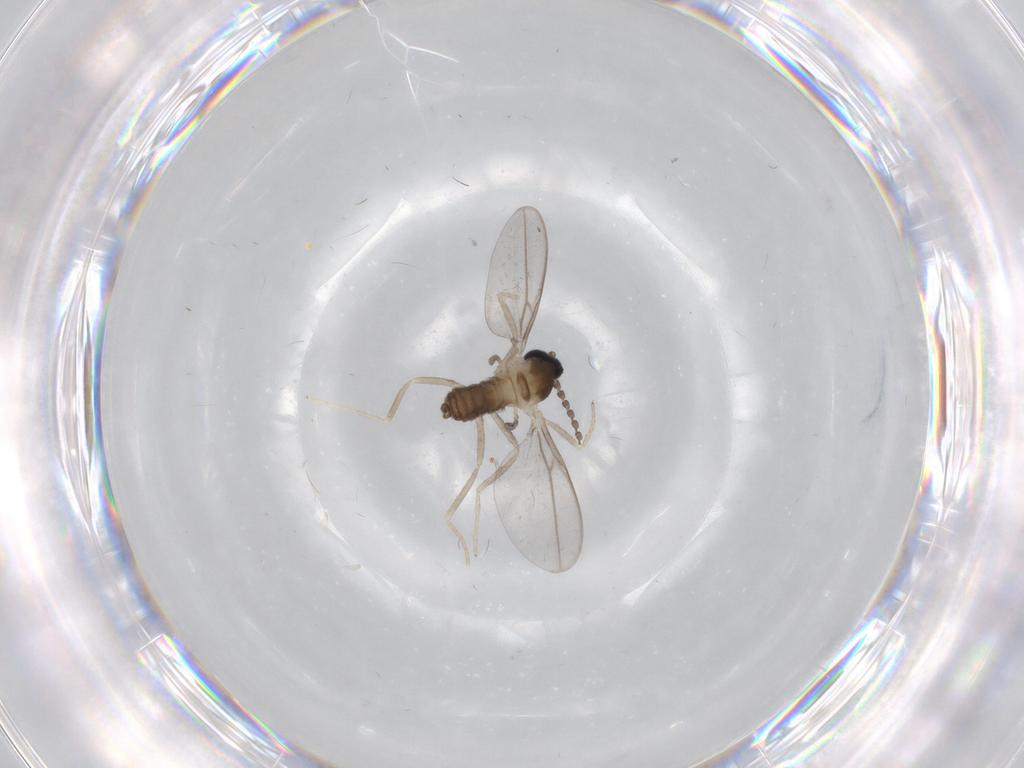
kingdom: Animalia
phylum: Arthropoda
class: Insecta
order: Diptera
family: Cecidomyiidae
